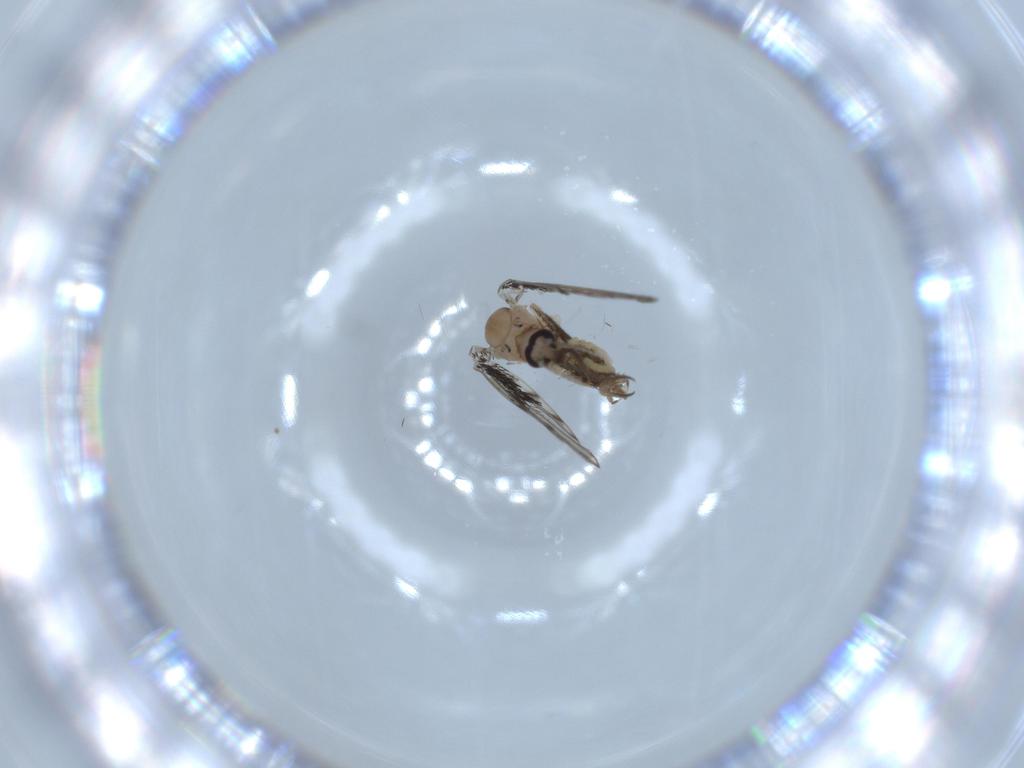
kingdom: Animalia
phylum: Arthropoda
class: Insecta
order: Diptera
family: Psychodidae
